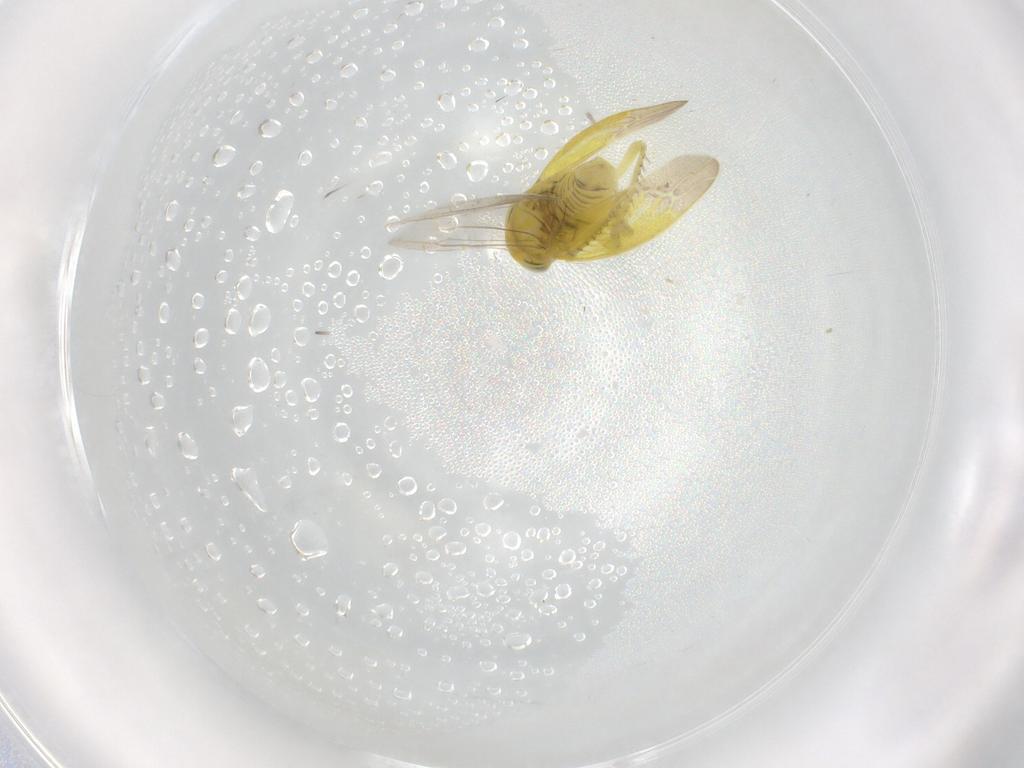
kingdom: Animalia
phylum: Arthropoda
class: Insecta
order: Hemiptera
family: Cicadellidae
